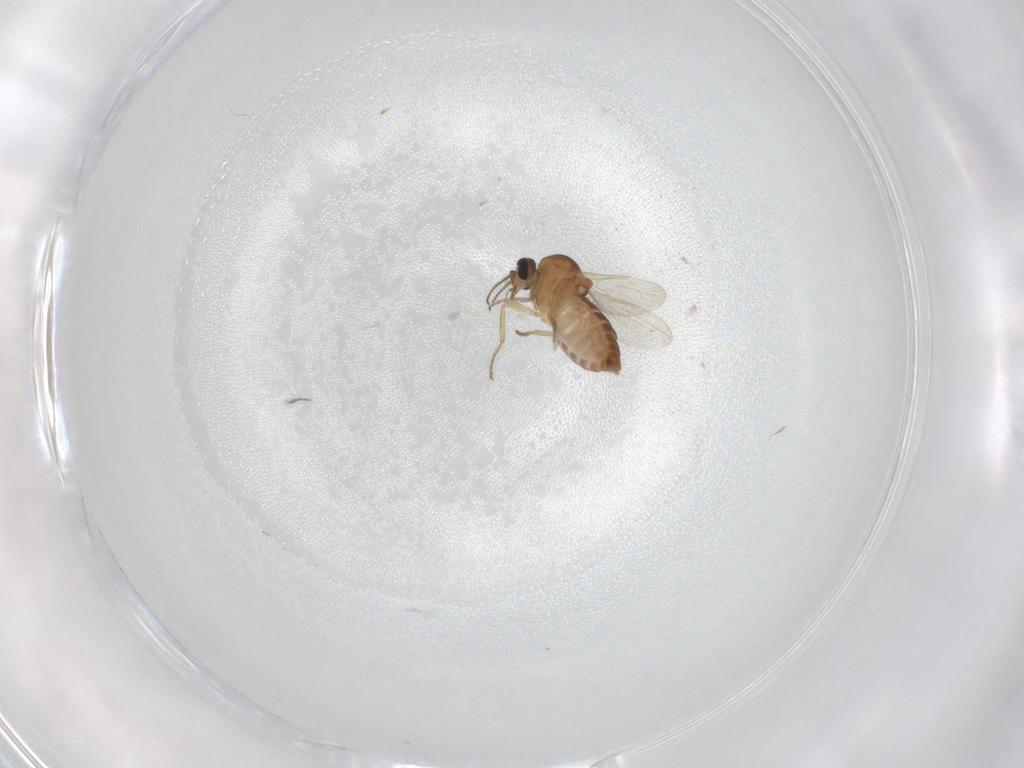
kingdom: Animalia
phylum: Arthropoda
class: Insecta
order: Diptera
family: Ceratopogonidae
